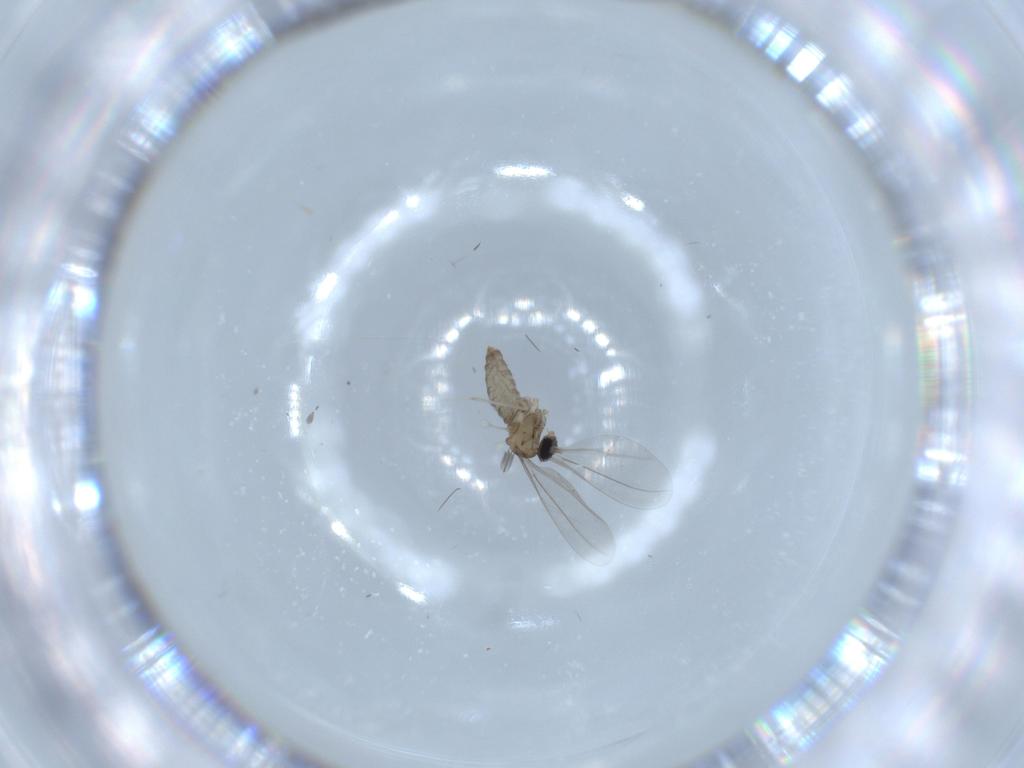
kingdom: Animalia
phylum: Arthropoda
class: Insecta
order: Diptera
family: Cecidomyiidae
